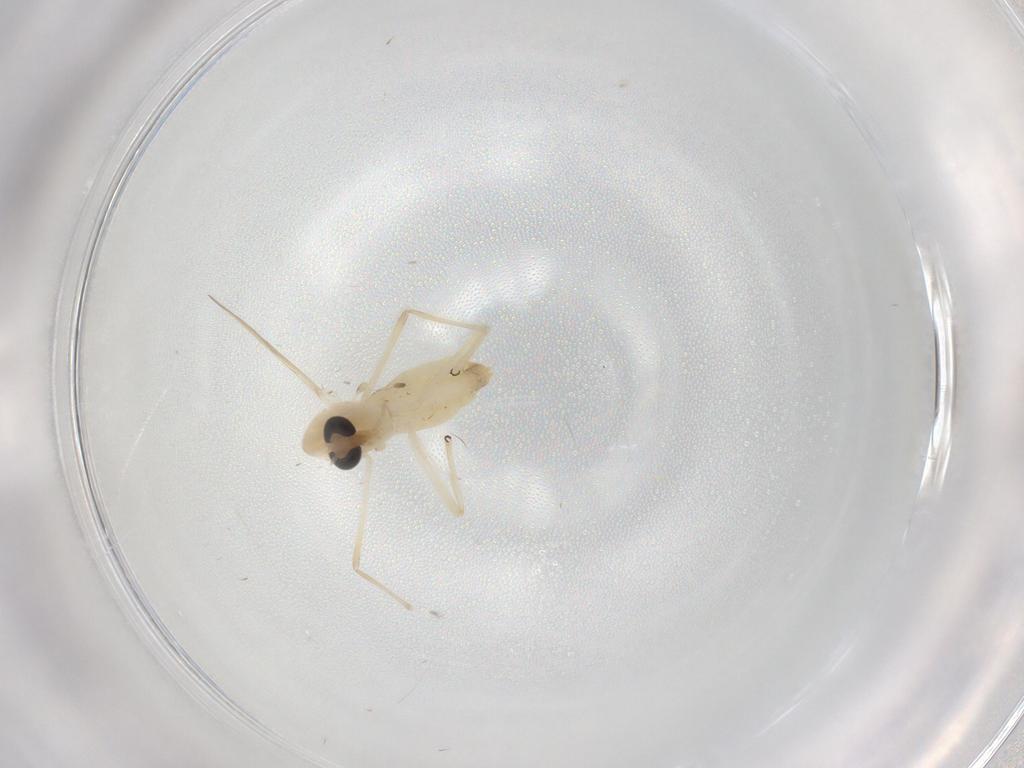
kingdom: Animalia
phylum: Arthropoda
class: Insecta
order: Diptera
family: Chironomidae
